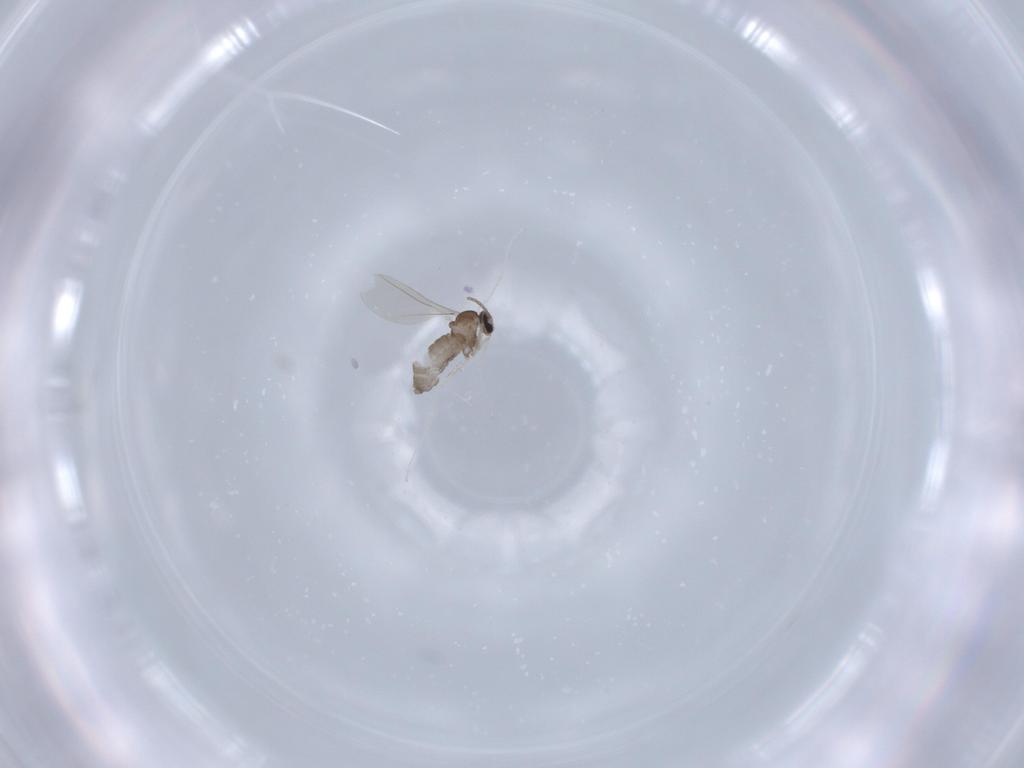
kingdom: Animalia
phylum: Arthropoda
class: Insecta
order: Diptera
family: Cecidomyiidae
